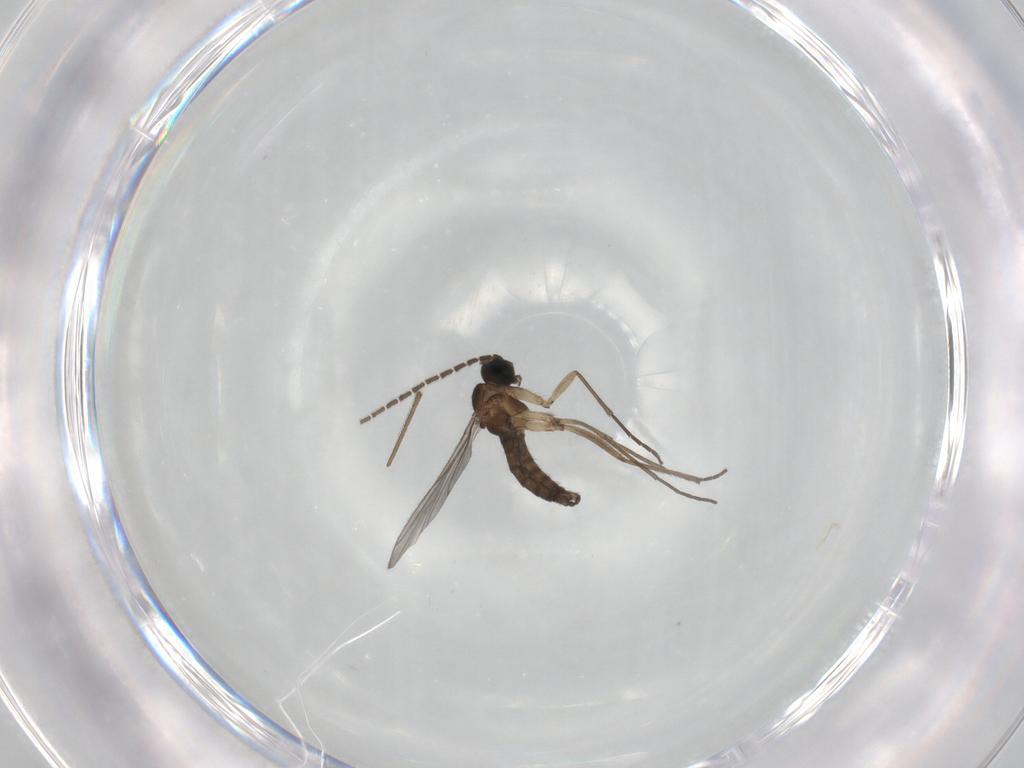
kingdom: Animalia
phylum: Arthropoda
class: Insecta
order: Diptera
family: Sciaridae
